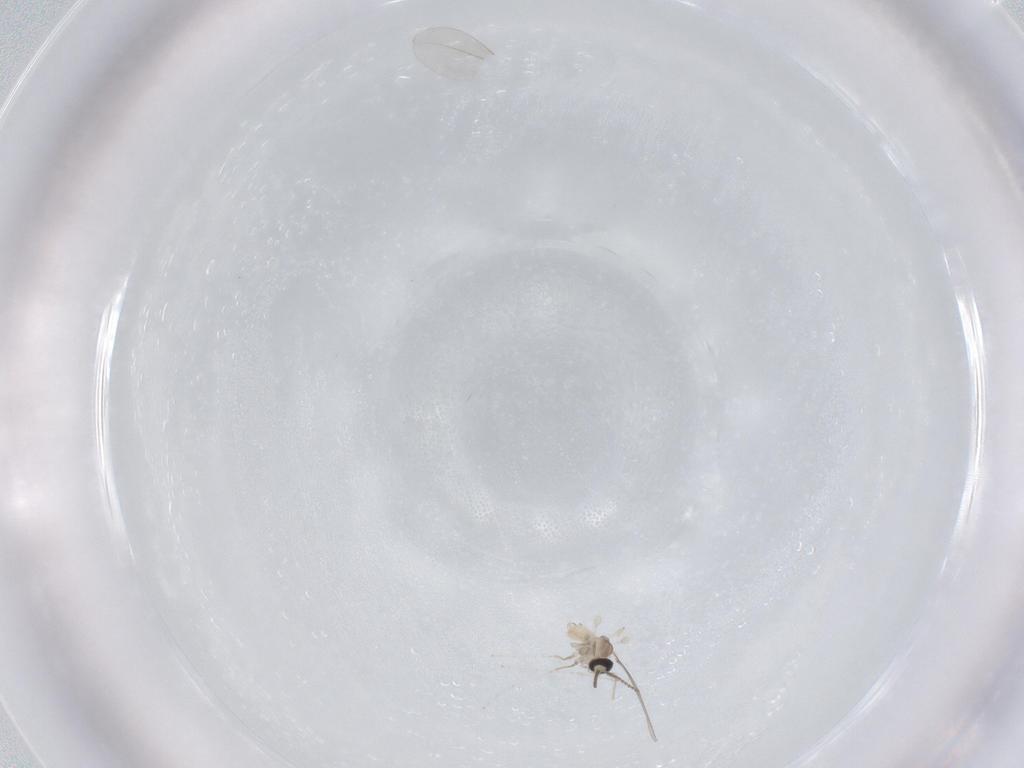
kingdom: Animalia
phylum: Arthropoda
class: Insecta
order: Diptera
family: Cecidomyiidae
